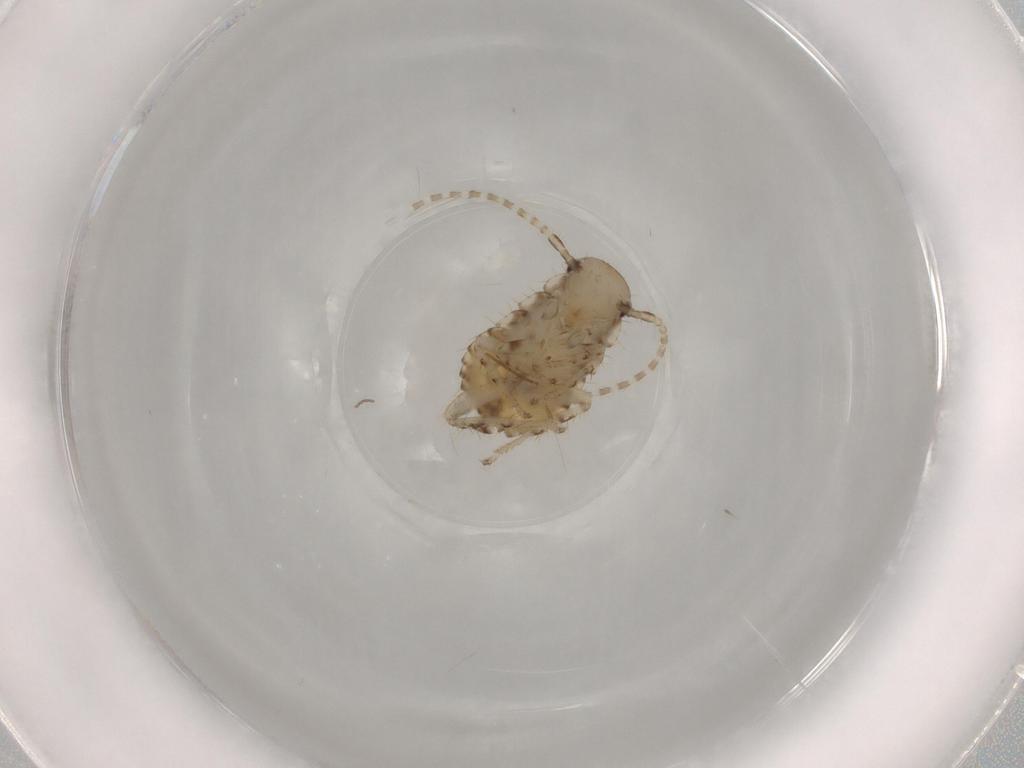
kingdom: Animalia
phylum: Arthropoda
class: Insecta
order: Blattodea
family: Ectobiidae
